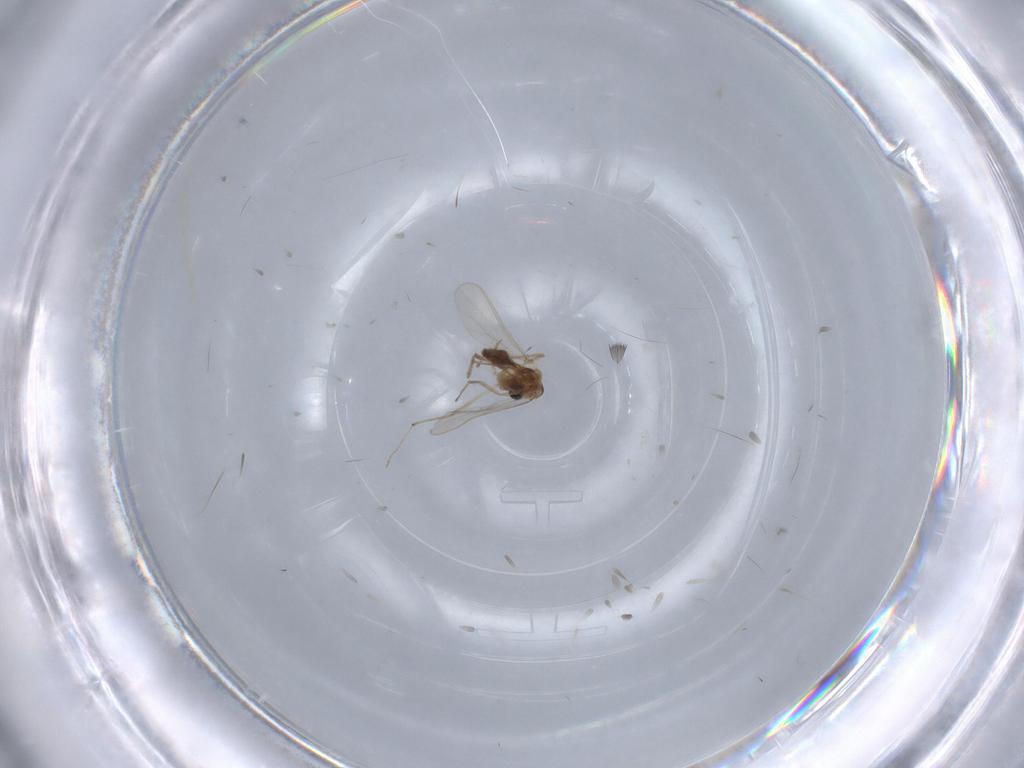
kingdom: Animalia
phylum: Arthropoda
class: Insecta
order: Diptera
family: Chironomidae
